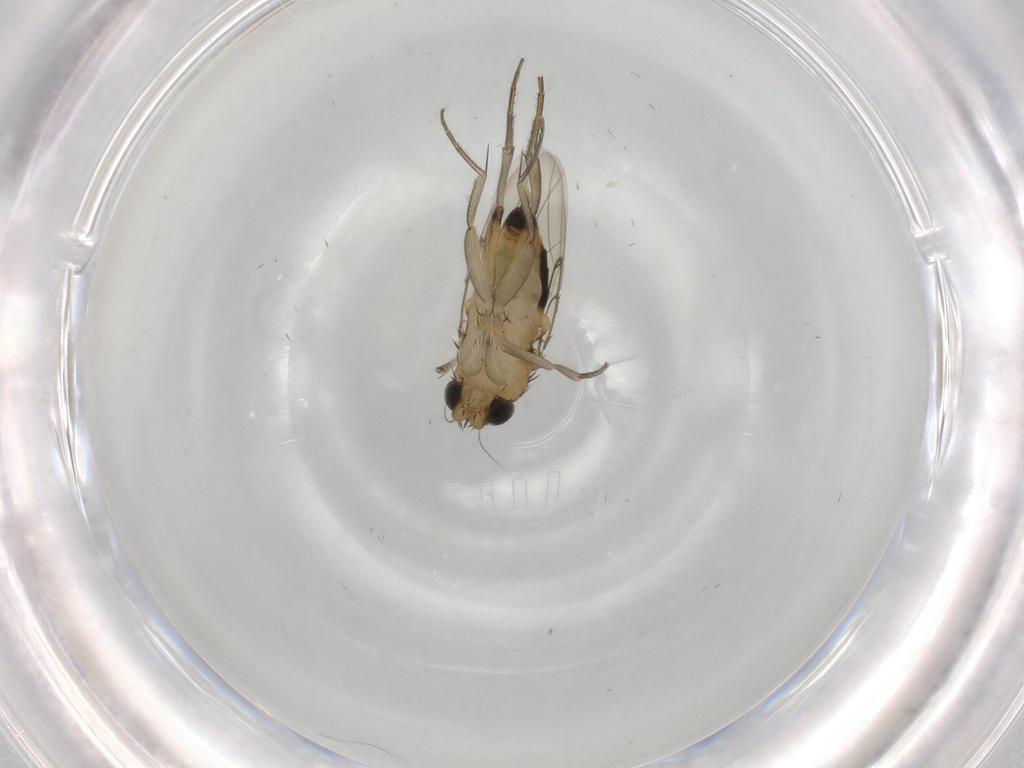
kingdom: Animalia
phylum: Arthropoda
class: Insecta
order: Diptera
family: Phoridae
